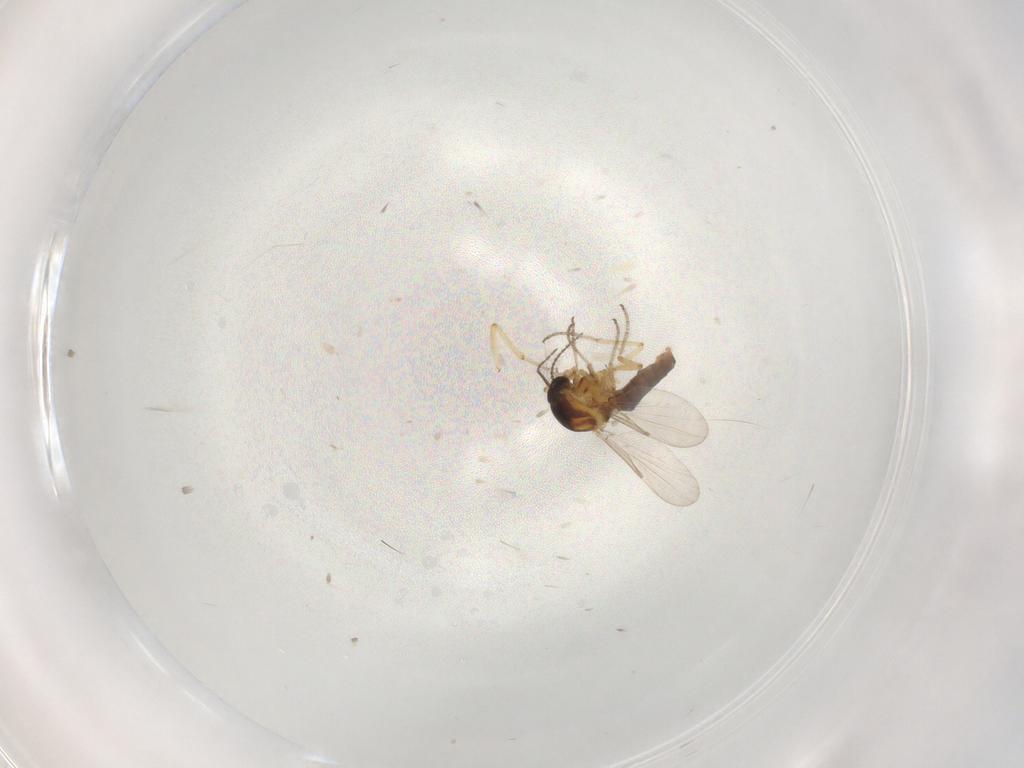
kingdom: Animalia
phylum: Arthropoda
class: Insecta
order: Diptera
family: Ceratopogonidae
